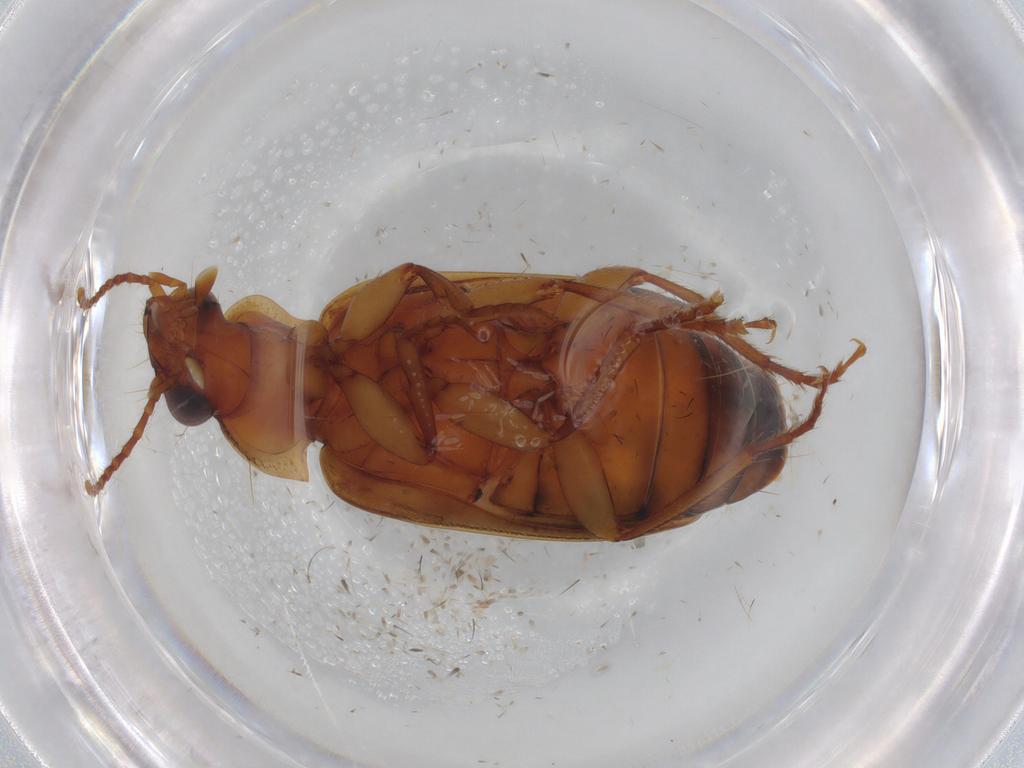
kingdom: Animalia
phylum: Arthropoda
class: Insecta
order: Coleoptera
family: Carabidae
